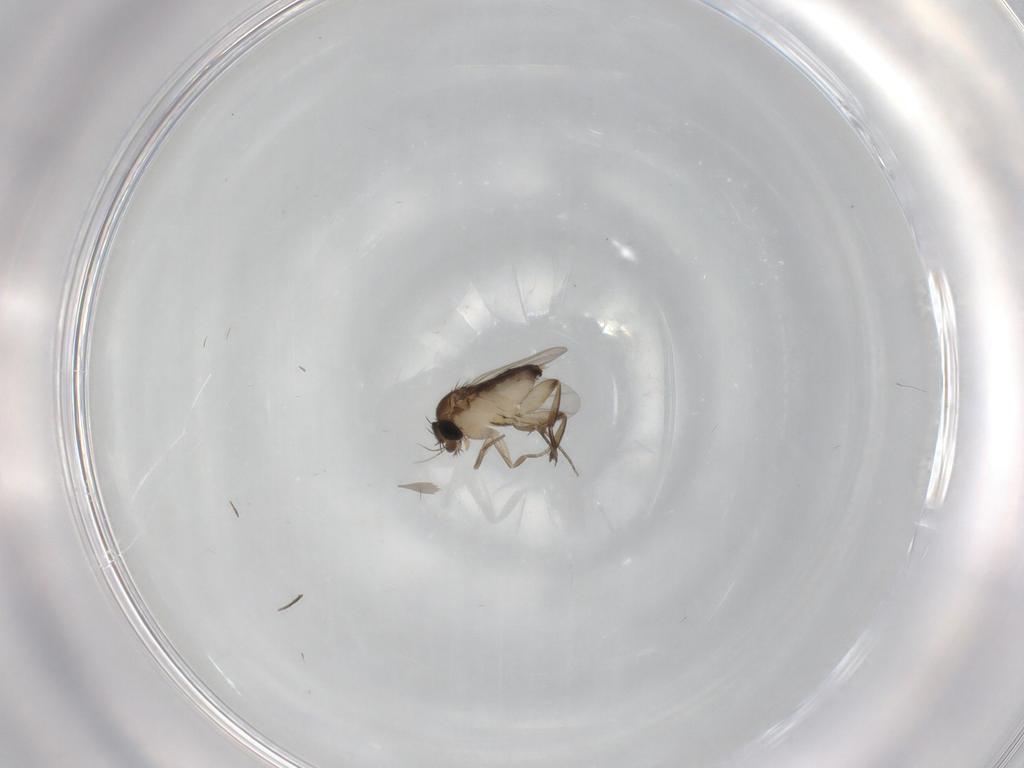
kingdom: Animalia
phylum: Arthropoda
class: Insecta
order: Diptera
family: Phoridae
